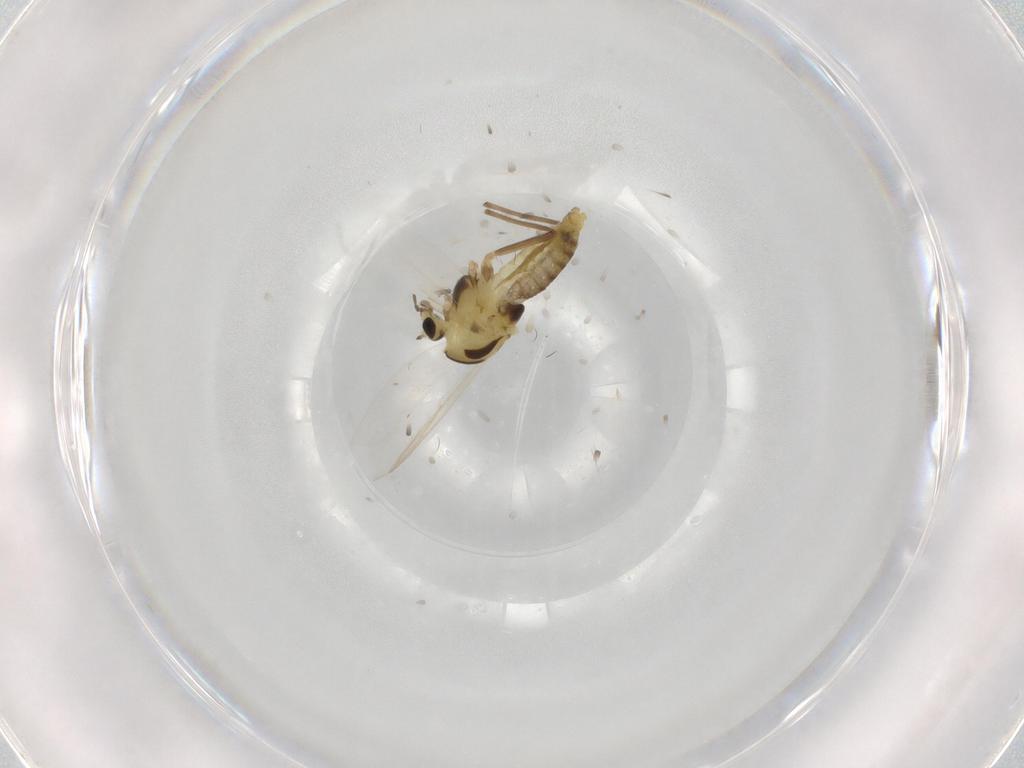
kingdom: Animalia
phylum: Arthropoda
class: Insecta
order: Diptera
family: Chironomidae
